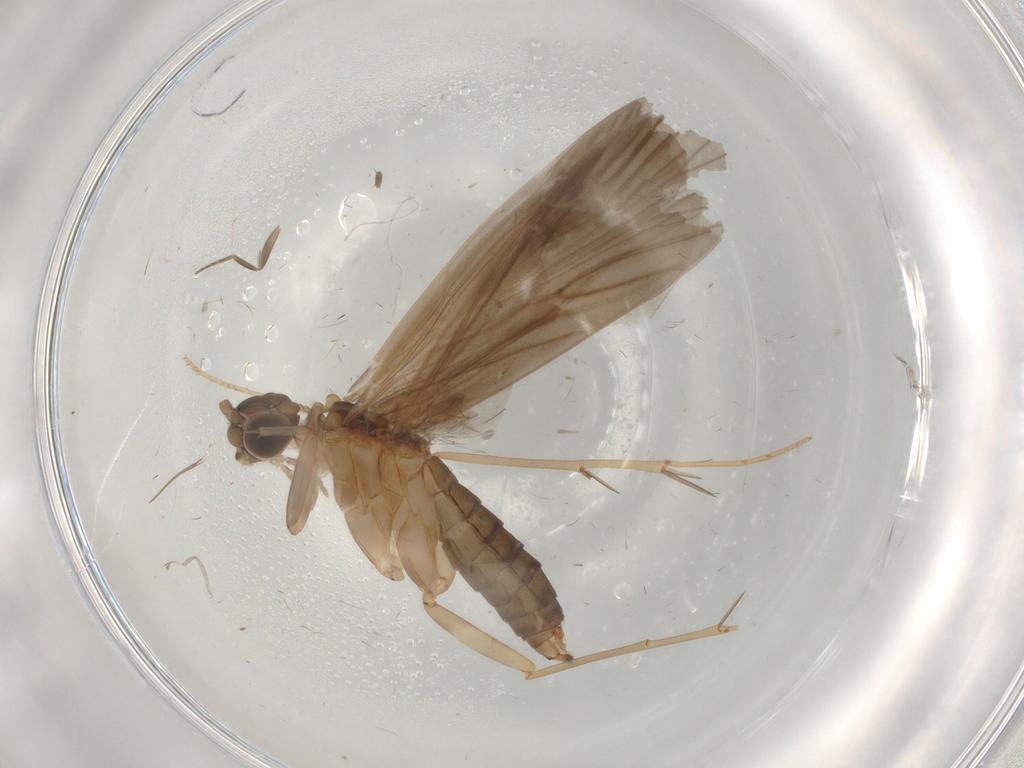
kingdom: Animalia
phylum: Arthropoda
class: Insecta
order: Trichoptera
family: Philopotamidae
